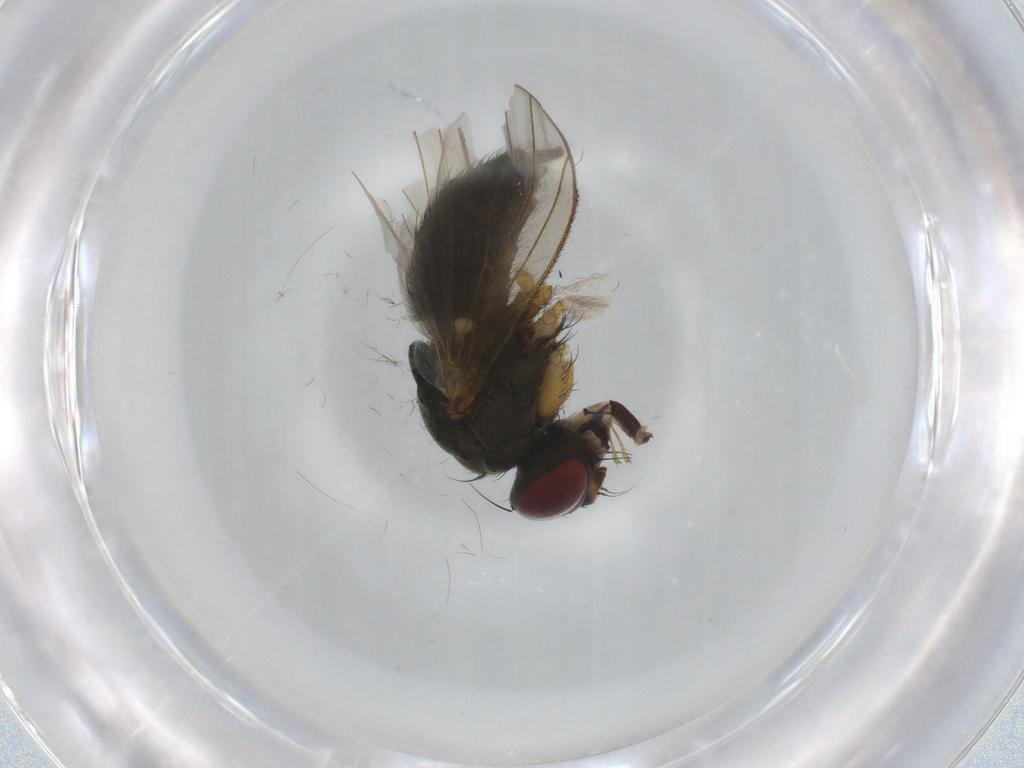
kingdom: Animalia
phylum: Arthropoda
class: Insecta
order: Diptera
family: Muscidae
